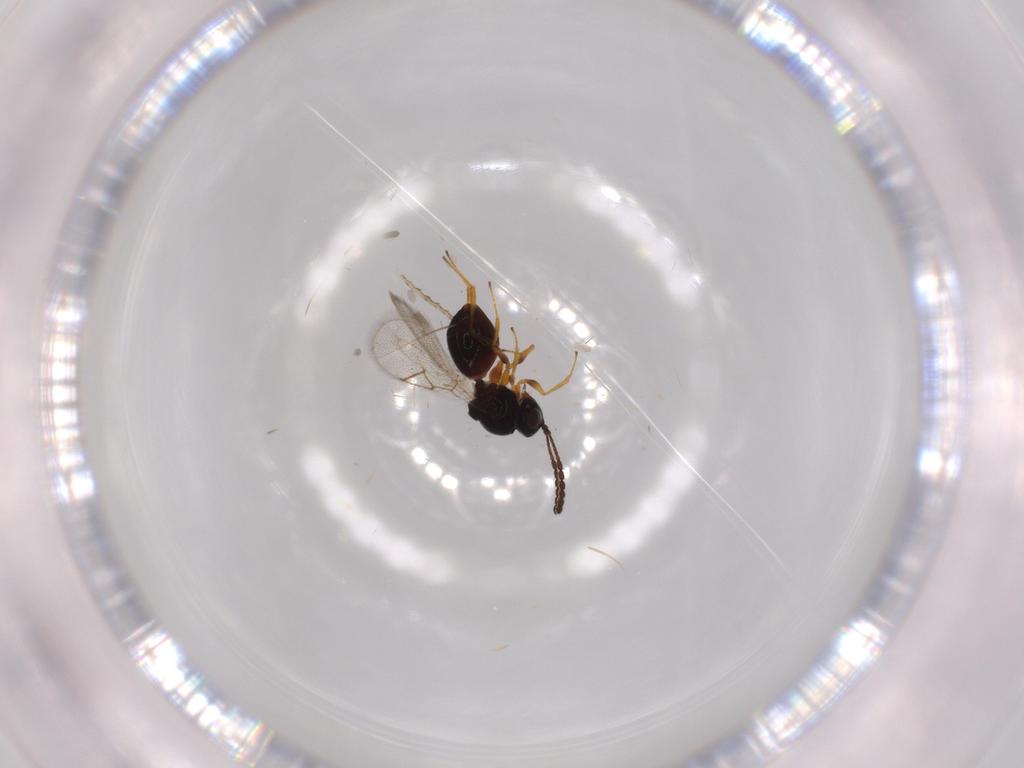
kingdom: Animalia
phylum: Arthropoda
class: Insecta
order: Hymenoptera
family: Figitidae
